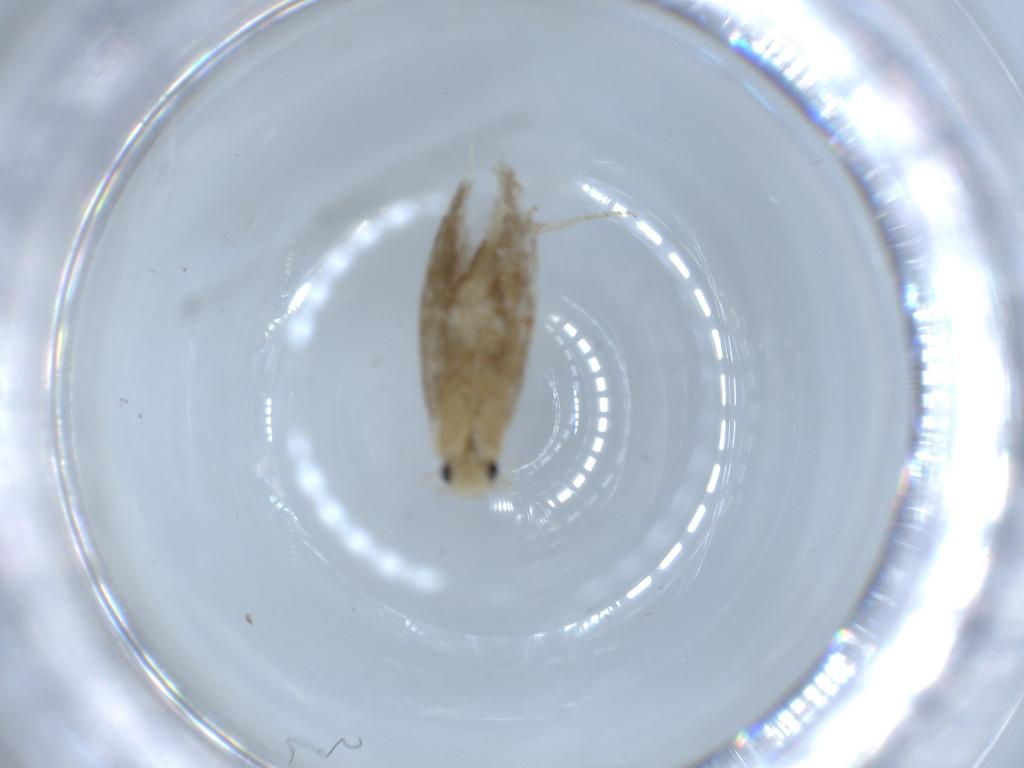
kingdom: Animalia
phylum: Arthropoda
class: Insecta
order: Lepidoptera
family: Tineidae
